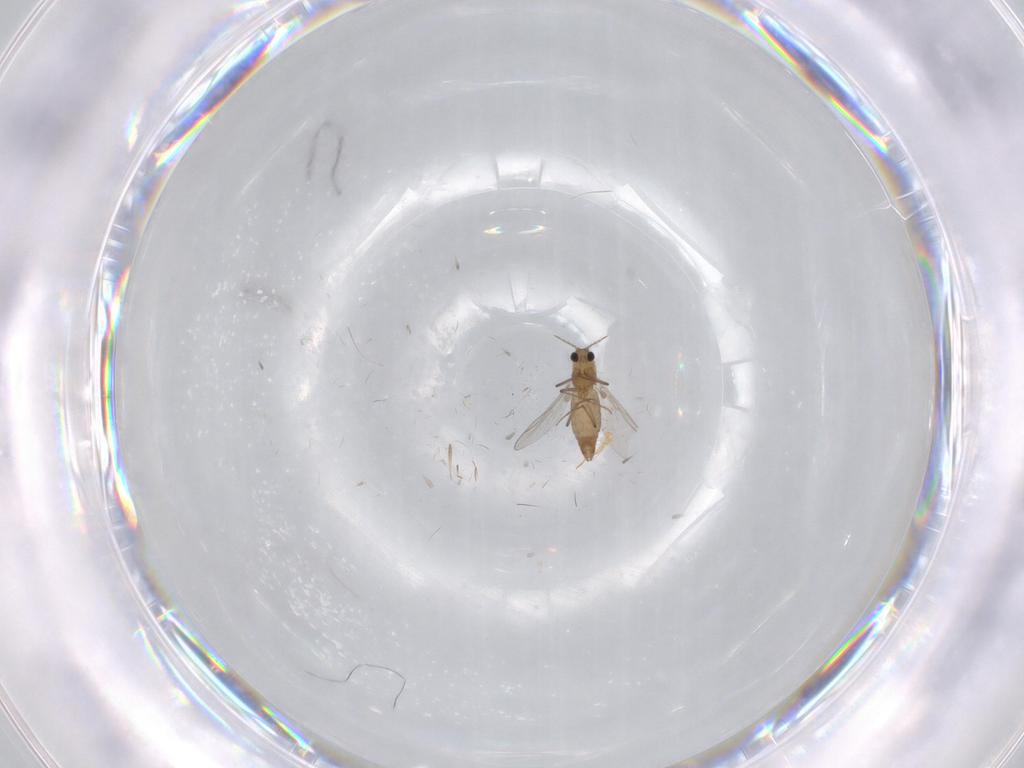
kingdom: Animalia
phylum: Arthropoda
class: Insecta
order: Diptera
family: Chironomidae
